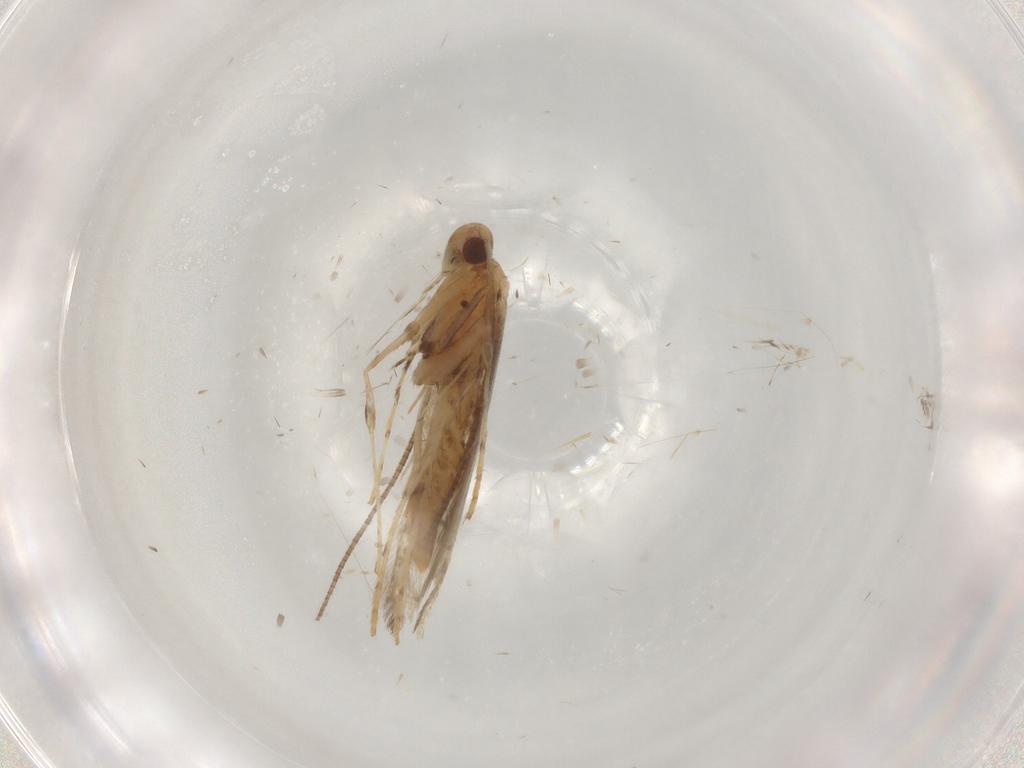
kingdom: Animalia
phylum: Arthropoda
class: Insecta
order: Lepidoptera
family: Gracillariidae
